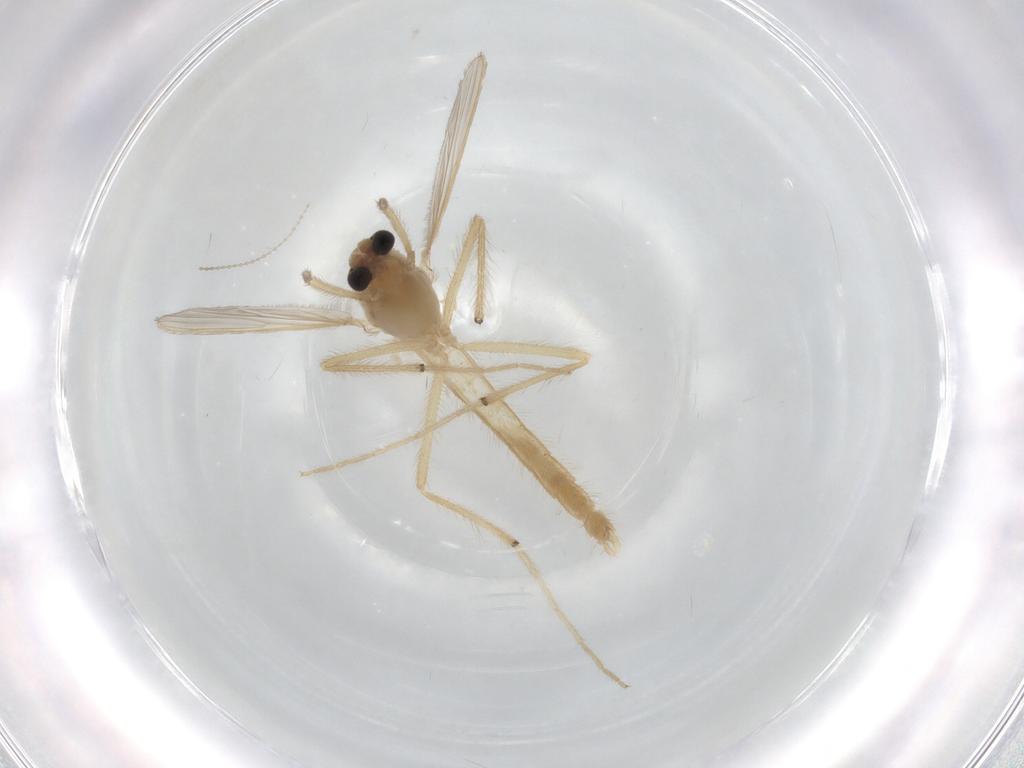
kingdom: Animalia
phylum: Arthropoda
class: Insecta
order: Diptera
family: Chironomidae
